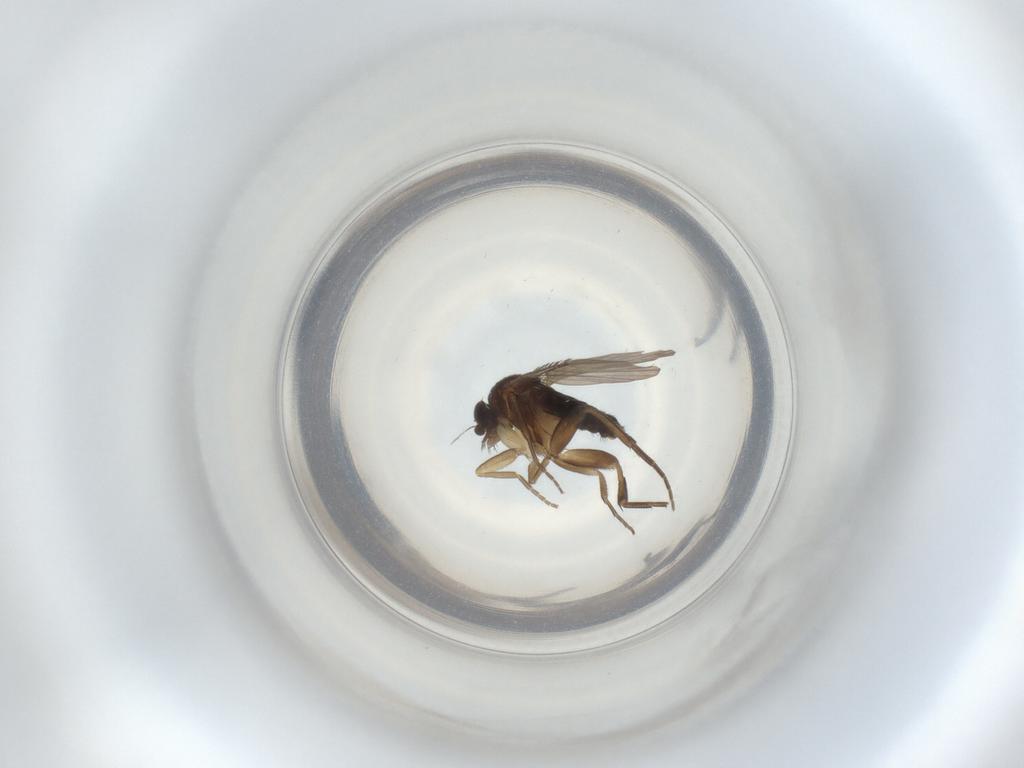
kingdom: Animalia
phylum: Arthropoda
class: Insecta
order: Diptera
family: Phoridae
